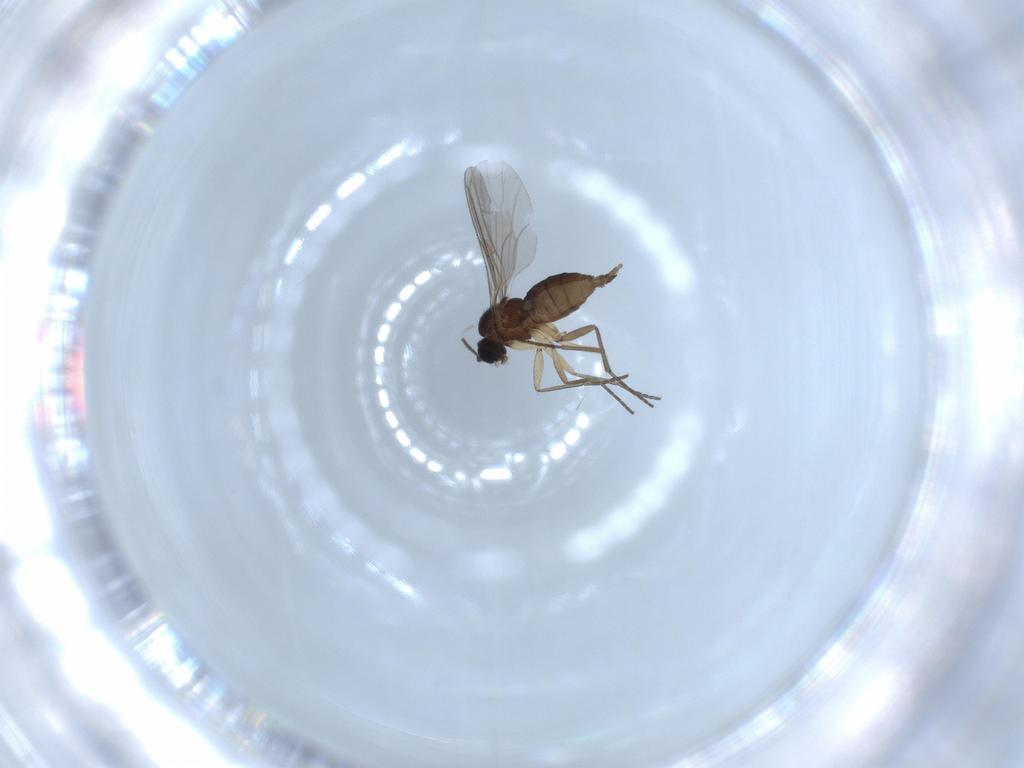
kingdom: Animalia
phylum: Arthropoda
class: Insecta
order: Diptera
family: Sciaridae
